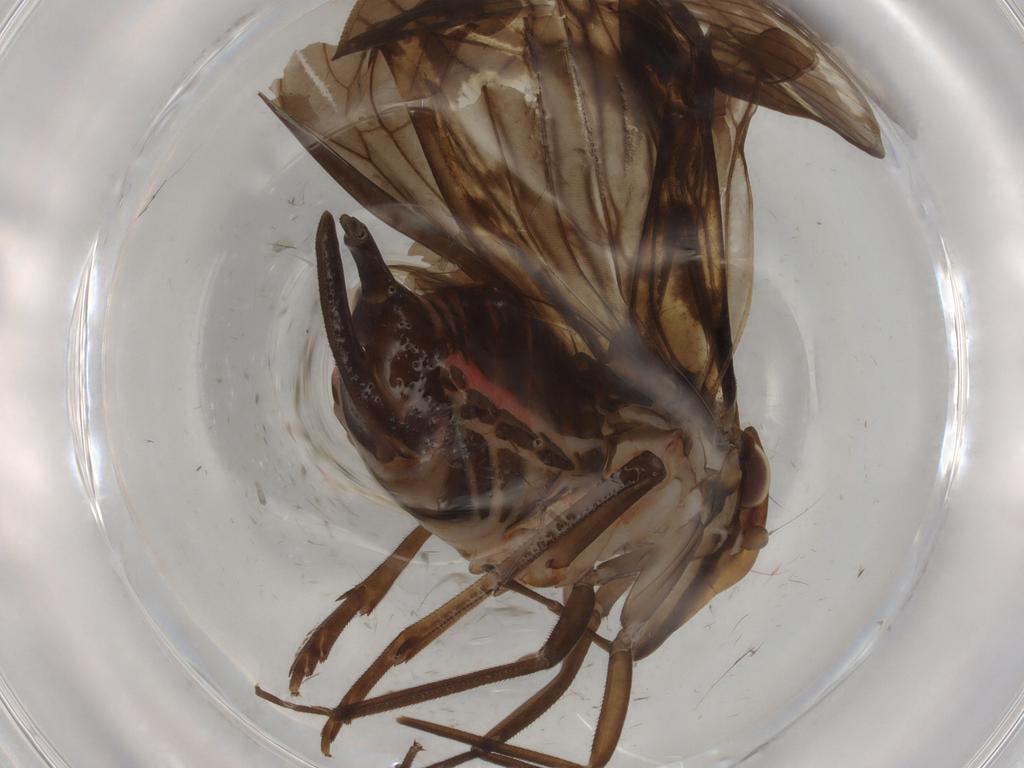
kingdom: Animalia
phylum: Arthropoda
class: Insecta
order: Hemiptera
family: Cixiidae
